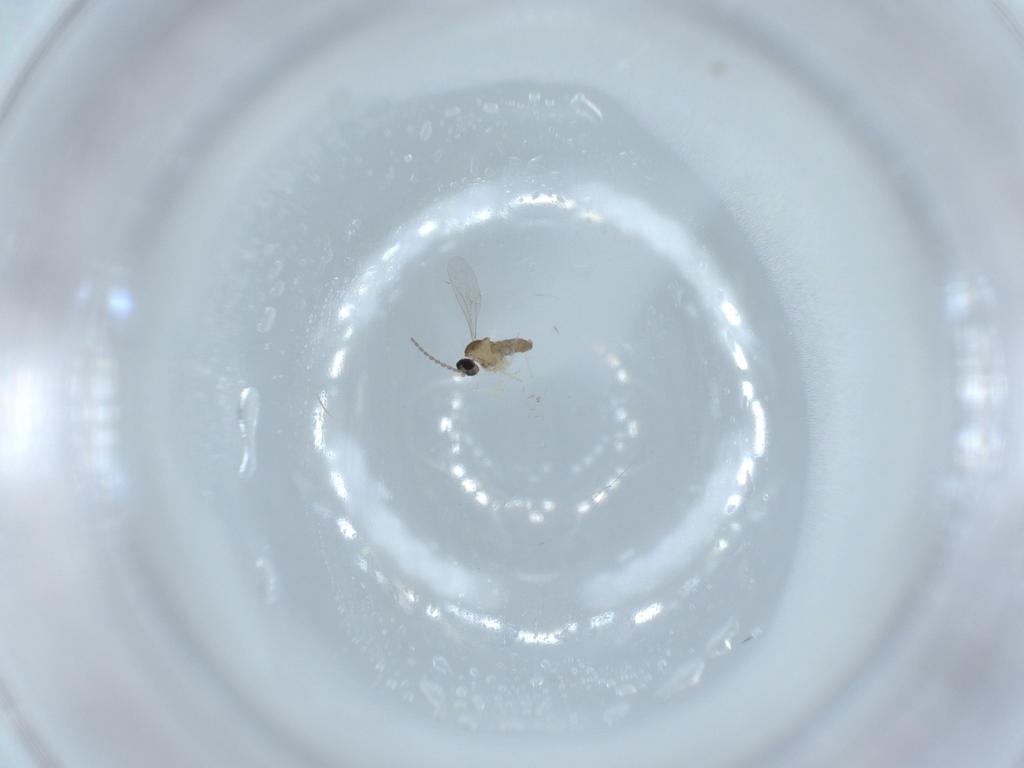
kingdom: Animalia
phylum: Arthropoda
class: Insecta
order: Diptera
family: Cecidomyiidae
